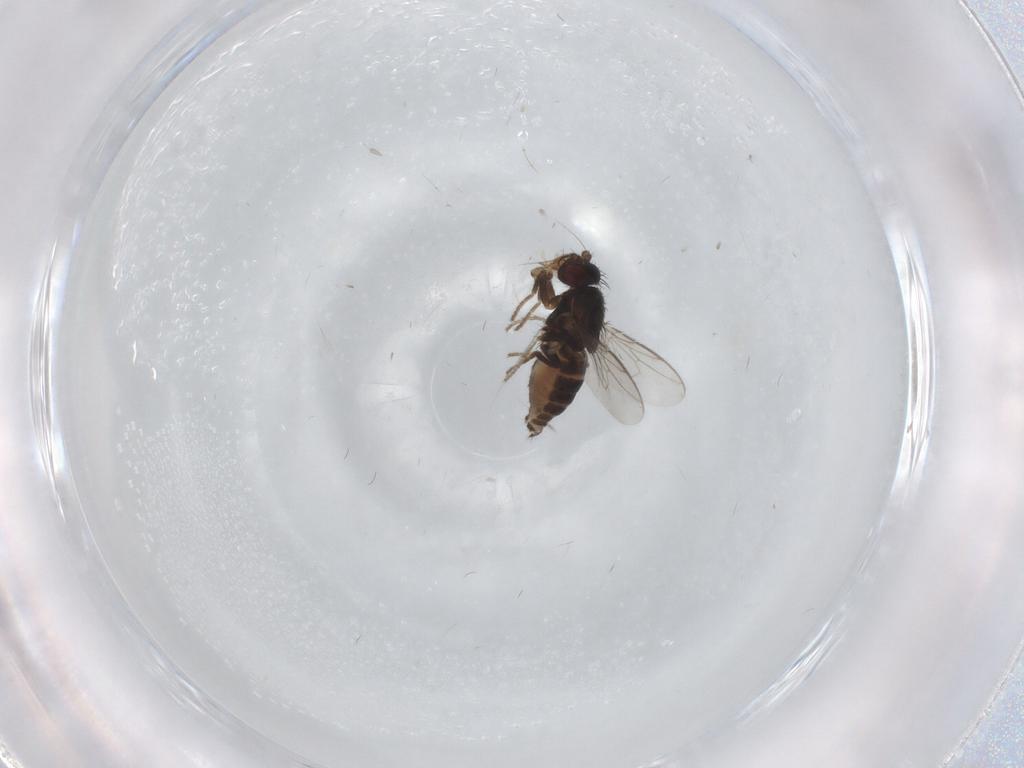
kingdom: Animalia
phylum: Arthropoda
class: Insecta
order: Diptera
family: Sphaeroceridae
